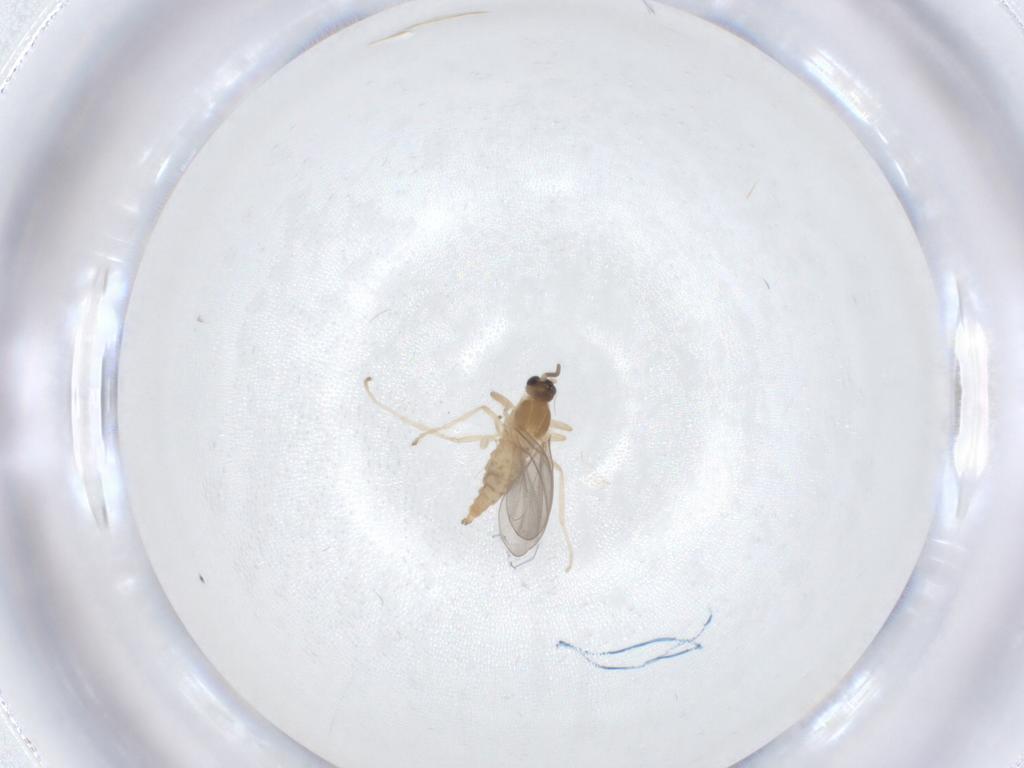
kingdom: Animalia
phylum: Arthropoda
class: Insecta
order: Diptera
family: Cecidomyiidae
